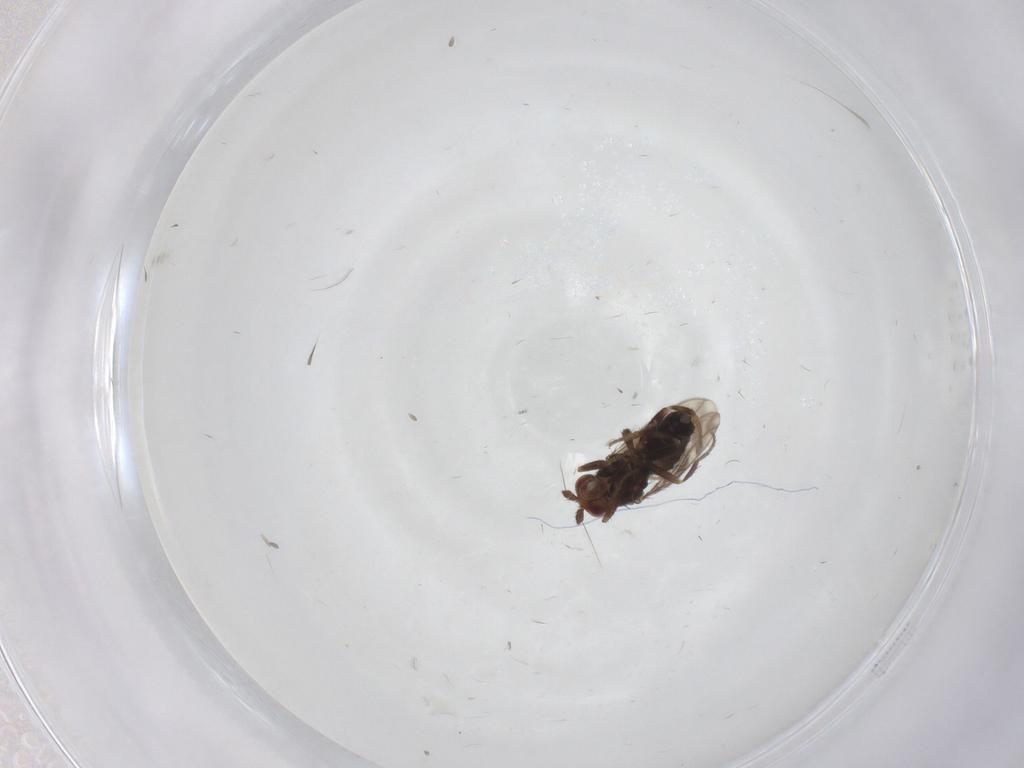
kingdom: Animalia
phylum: Arthropoda
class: Insecta
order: Diptera
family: Sphaeroceridae
